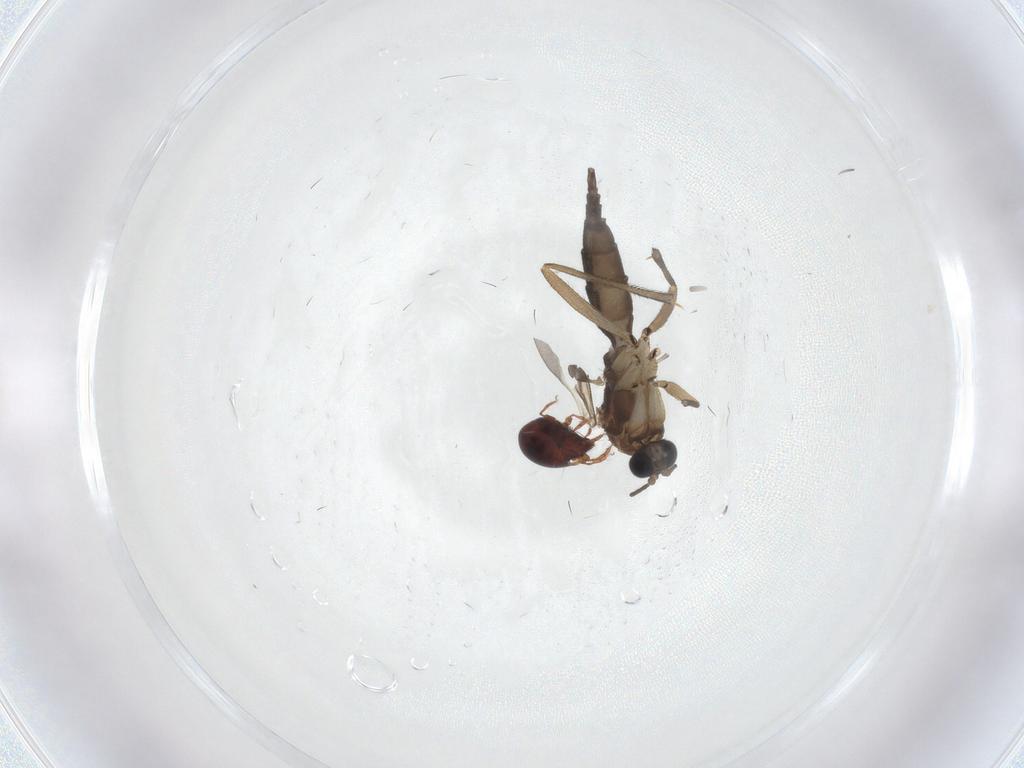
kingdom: Animalia
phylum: Arthropoda
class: Insecta
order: Diptera
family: Sciaridae
